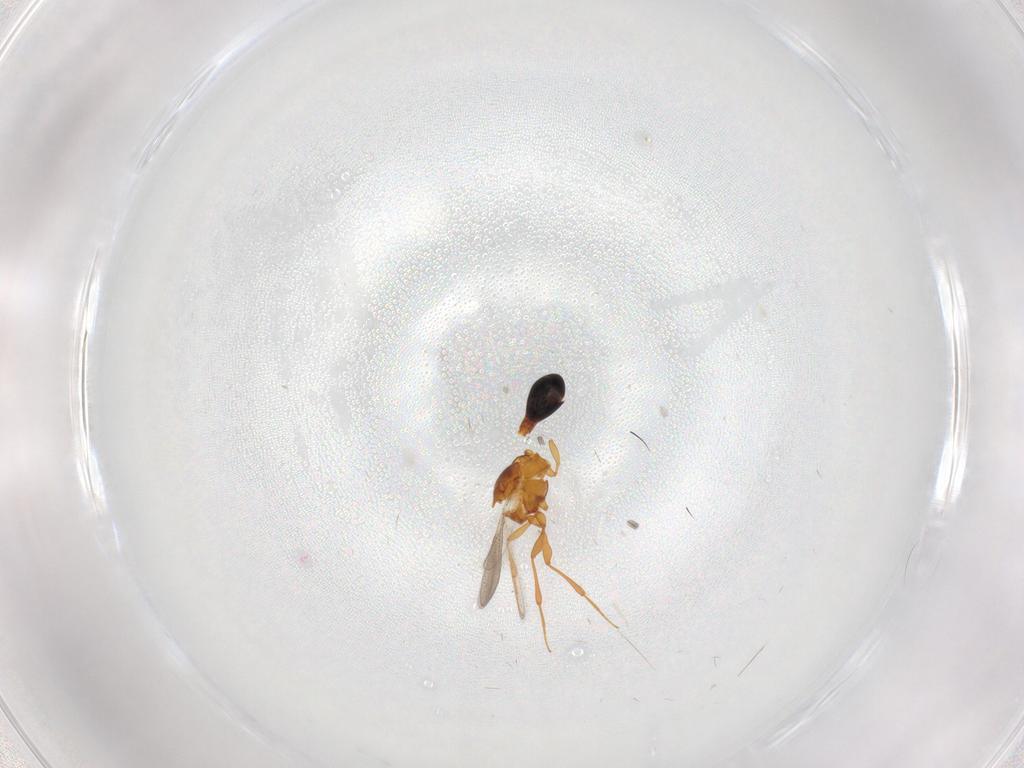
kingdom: Animalia
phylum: Arthropoda
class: Insecta
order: Hymenoptera
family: Platygastridae
